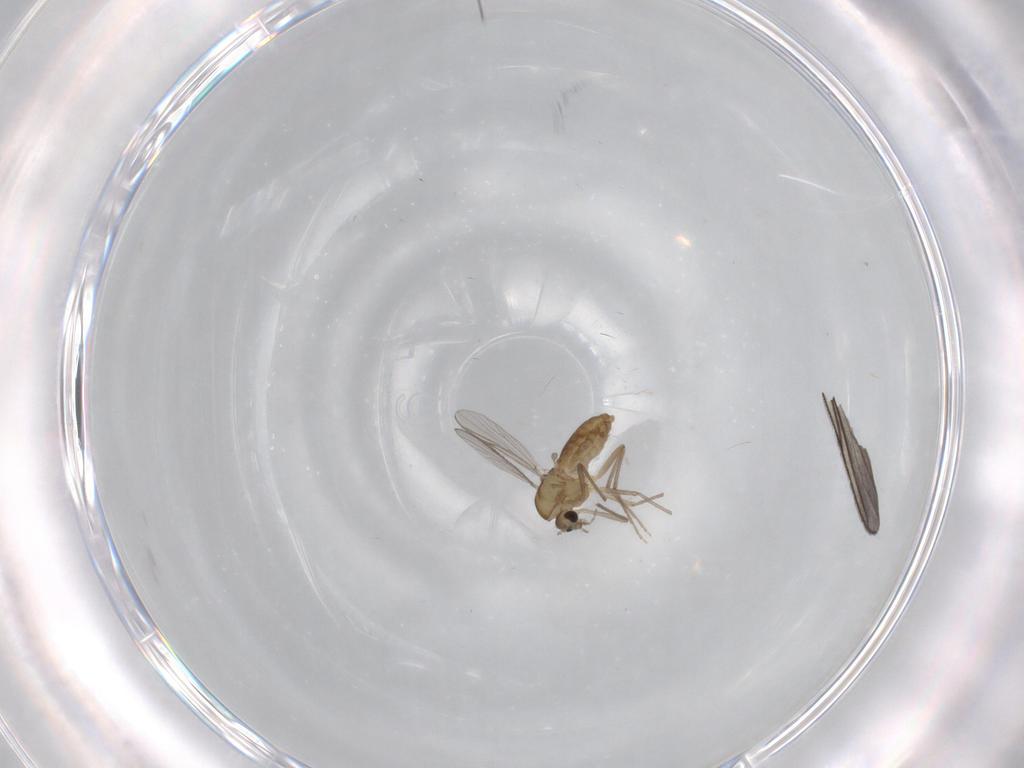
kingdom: Animalia
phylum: Arthropoda
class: Insecta
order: Diptera
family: Chironomidae
